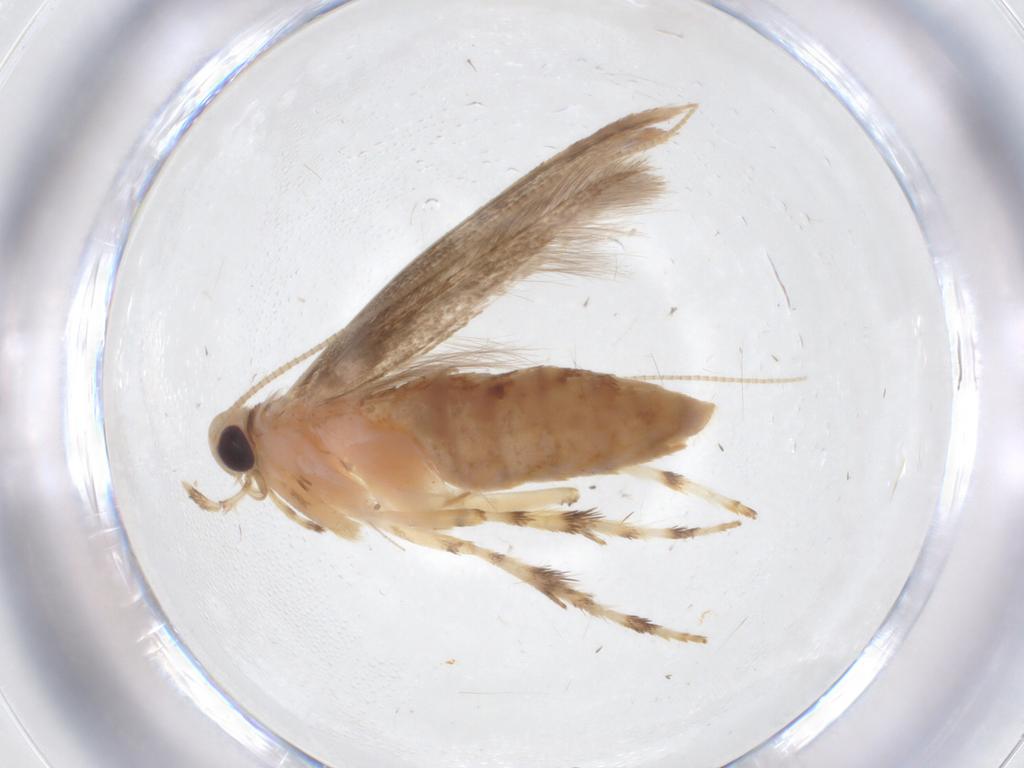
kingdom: Animalia
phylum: Arthropoda
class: Insecta
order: Lepidoptera
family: Gracillariidae
